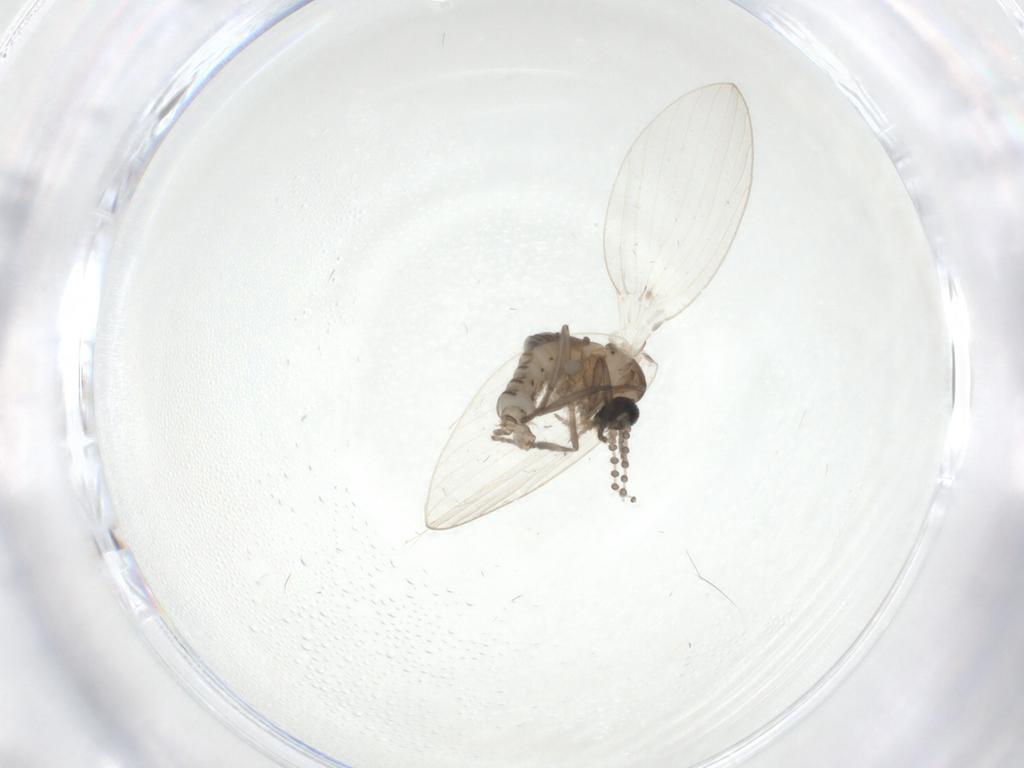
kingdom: Animalia
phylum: Arthropoda
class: Insecta
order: Diptera
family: Psychodidae
